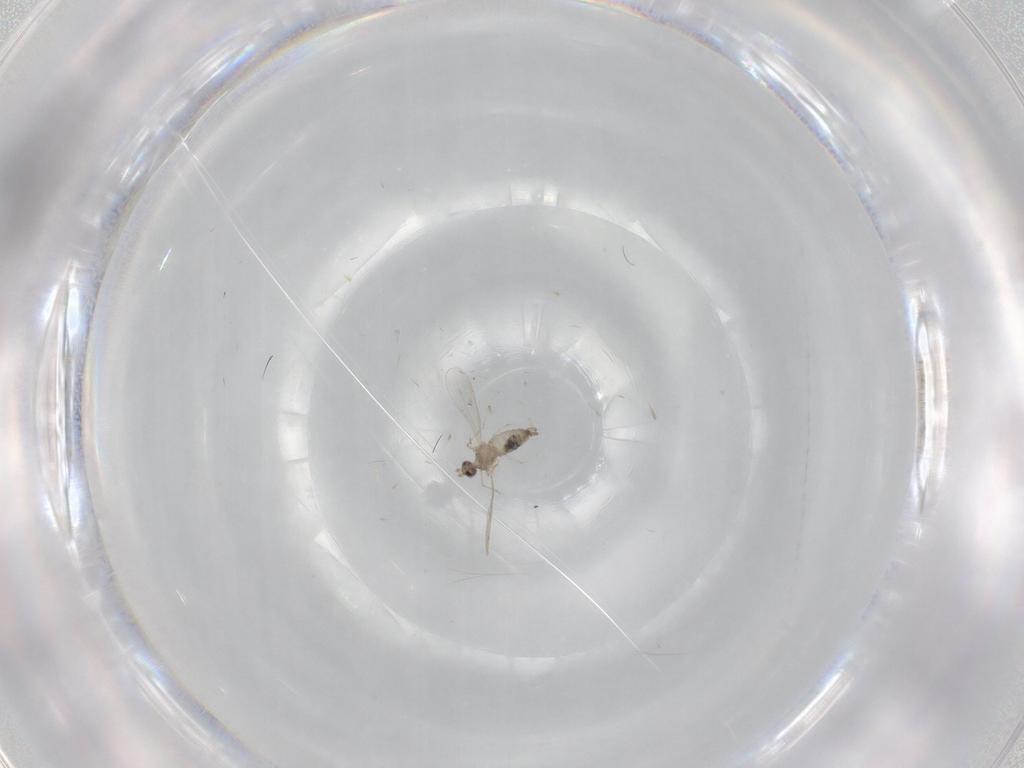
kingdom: Animalia
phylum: Arthropoda
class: Insecta
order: Diptera
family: Cecidomyiidae
